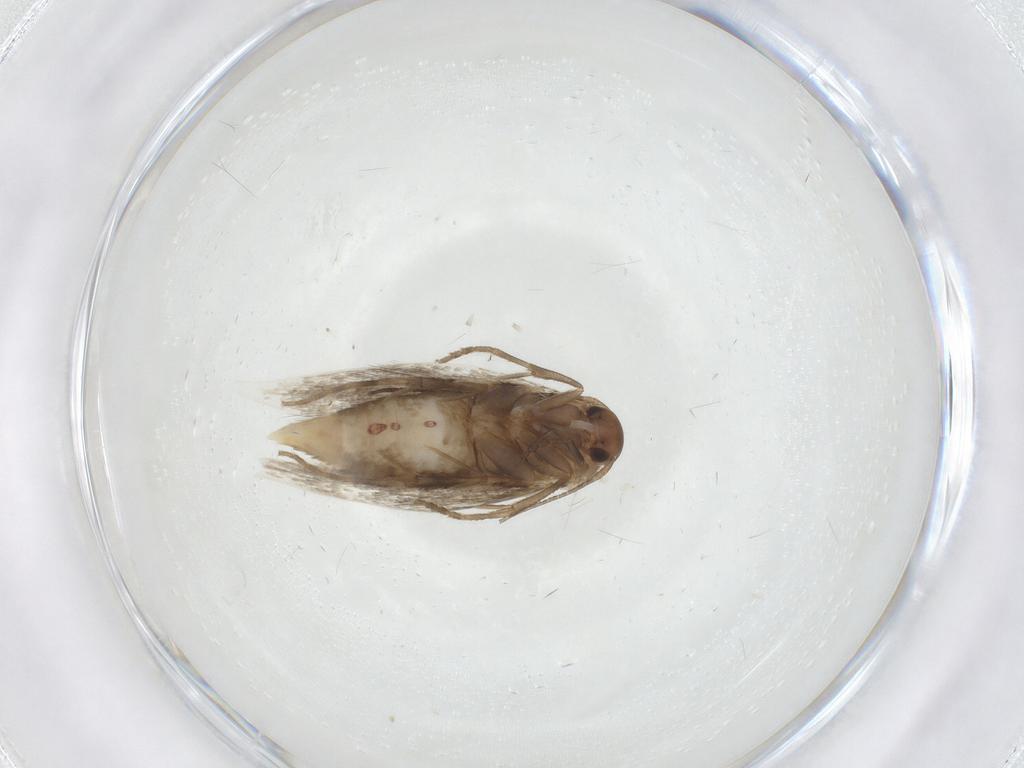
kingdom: Animalia
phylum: Arthropoda
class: Insecta
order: Lepidoptera
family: Elachistidae
